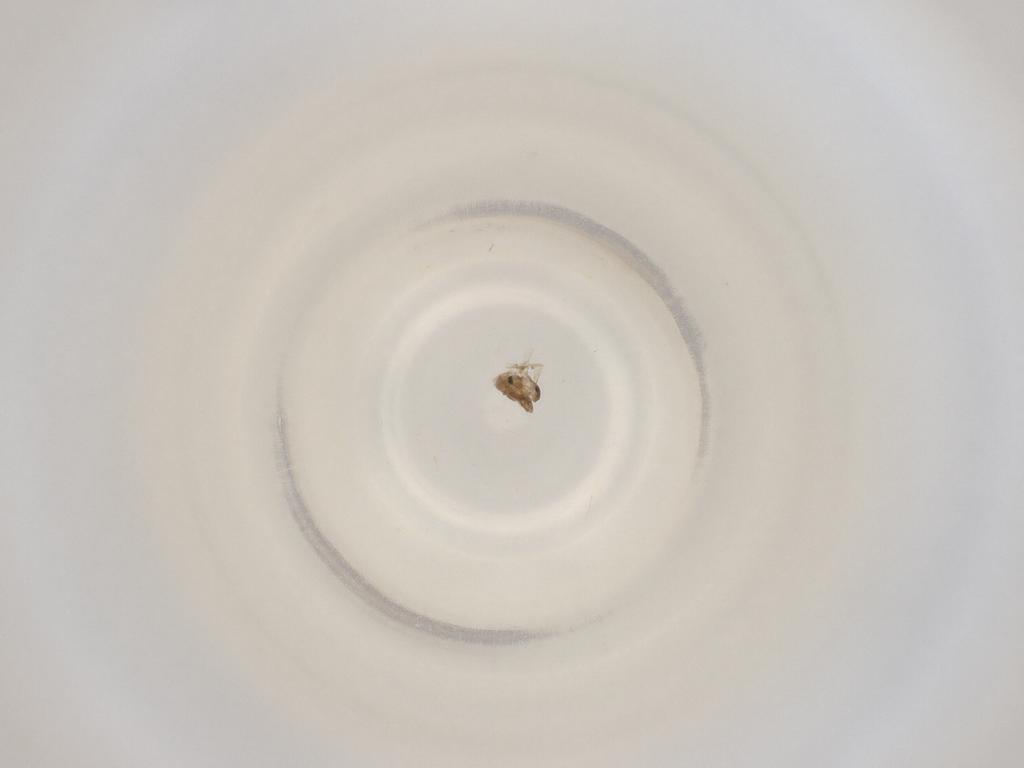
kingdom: Animalia
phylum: Arthropoda
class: Insecta
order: Diptera
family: Cecidomyiidae
